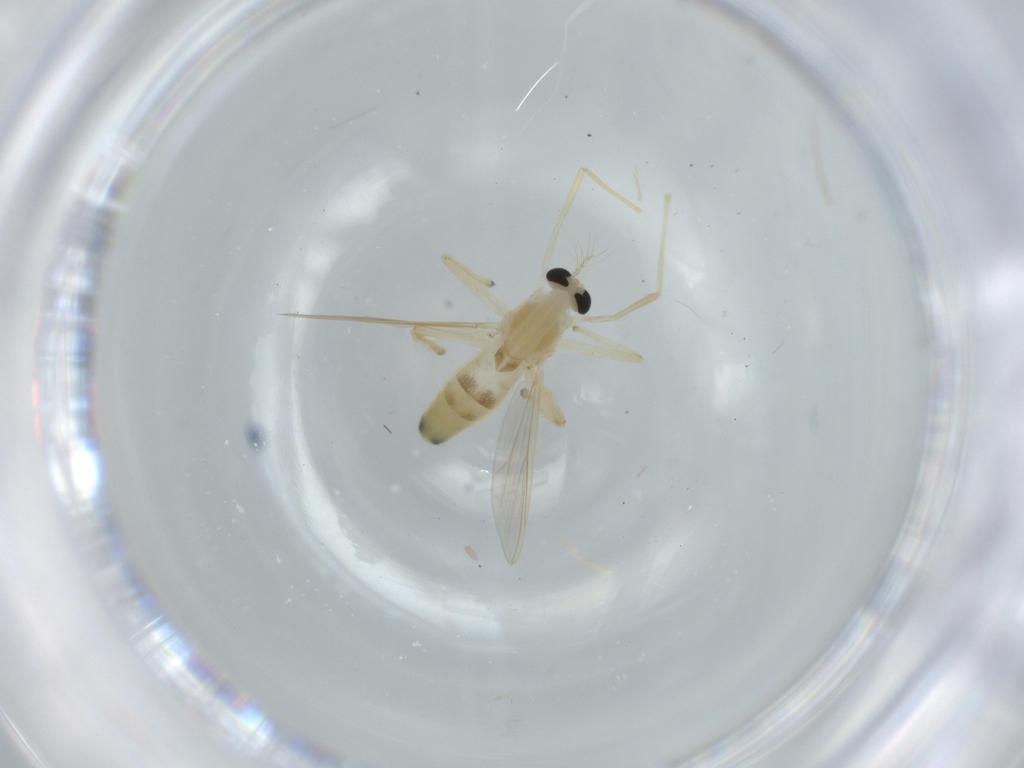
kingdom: Animalia
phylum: Arthropoda
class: Insecta
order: Diptera
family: Chironomidae
